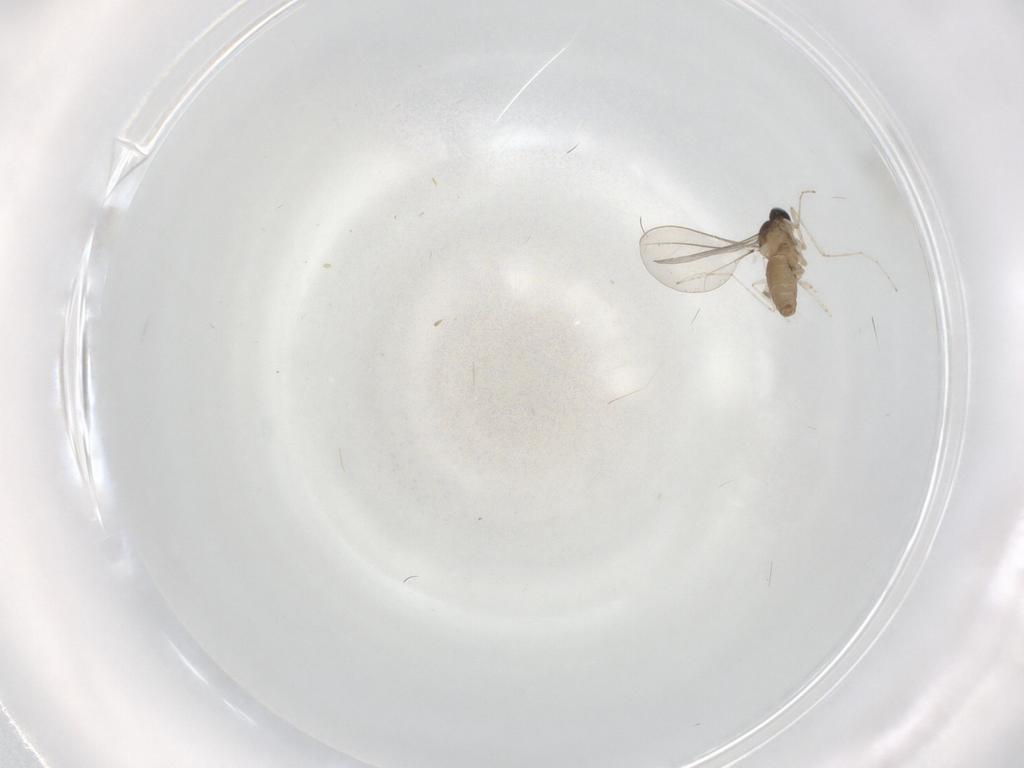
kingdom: Animalia
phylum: Arthropoda
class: Insecta
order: Diptera
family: Cecidomyiidae
